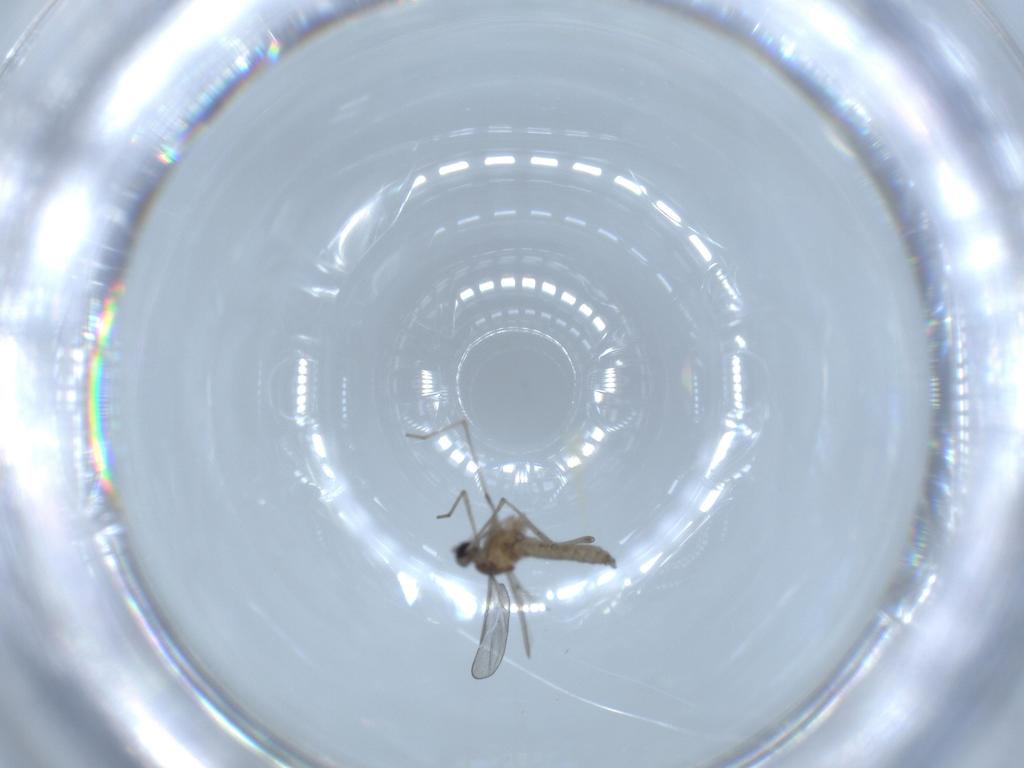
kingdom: Animalia
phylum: Arthropoda
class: Insecta
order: Diptera
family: Cecidomyiidae
